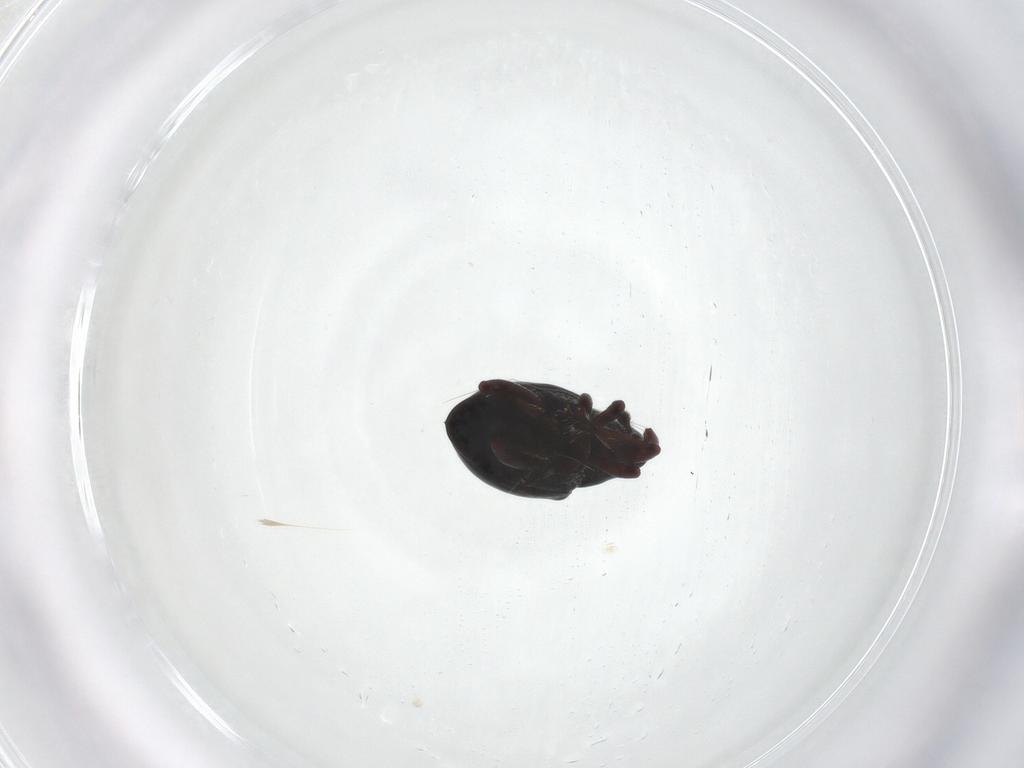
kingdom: Animalia
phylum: Arthropoda
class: Insecta
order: Coleoptera
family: Curculionidae
